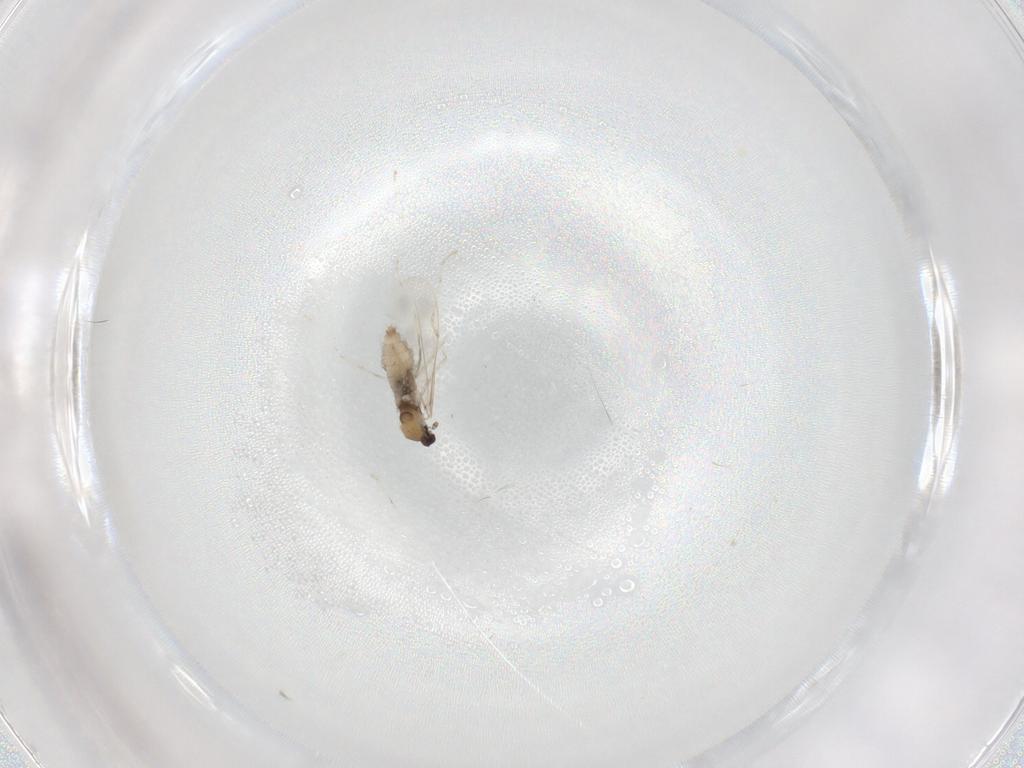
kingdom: Animalia
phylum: Arthropoda
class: Insecta
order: Diptera
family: Cecidomyiidae
